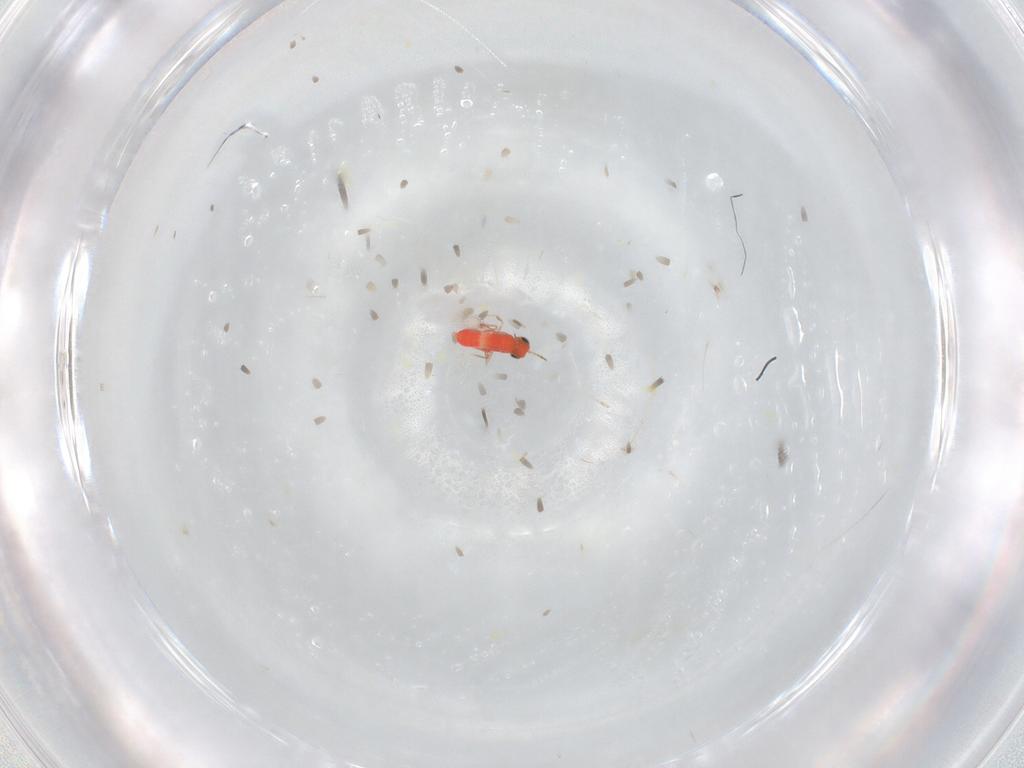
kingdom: Animalia
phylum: Arthropoda
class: Insecta
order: Hymenoptera
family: Trichogrammatidae
